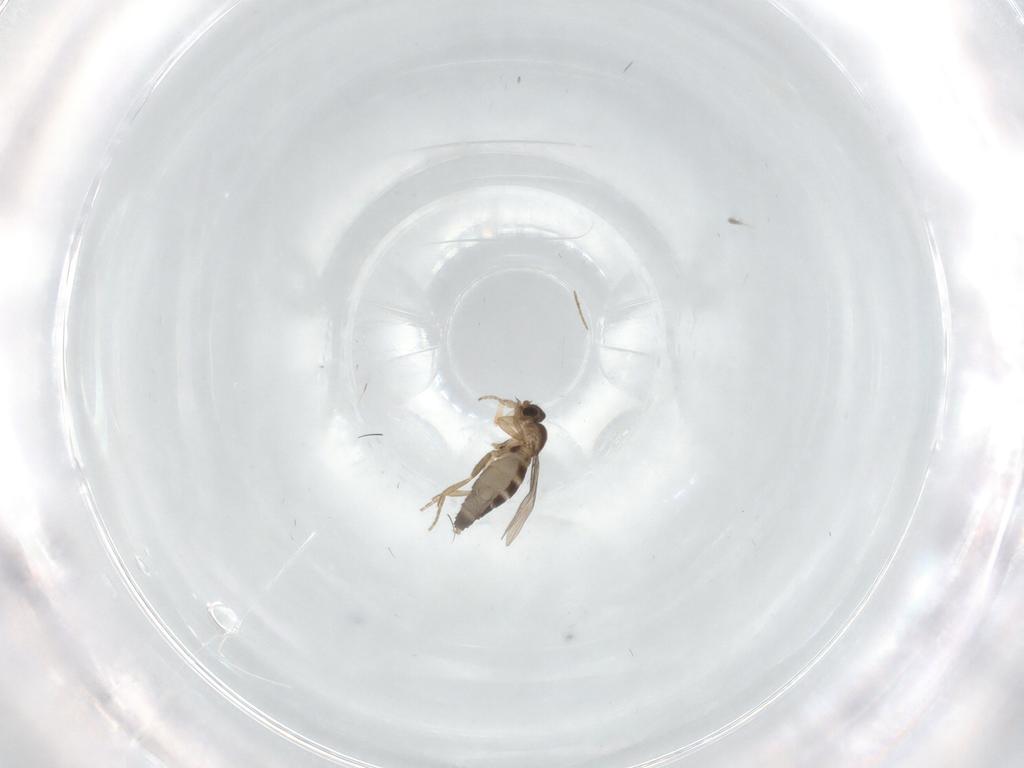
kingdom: Animalia
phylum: Arthropoda
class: Insecta
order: Diptera
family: Phoridae
